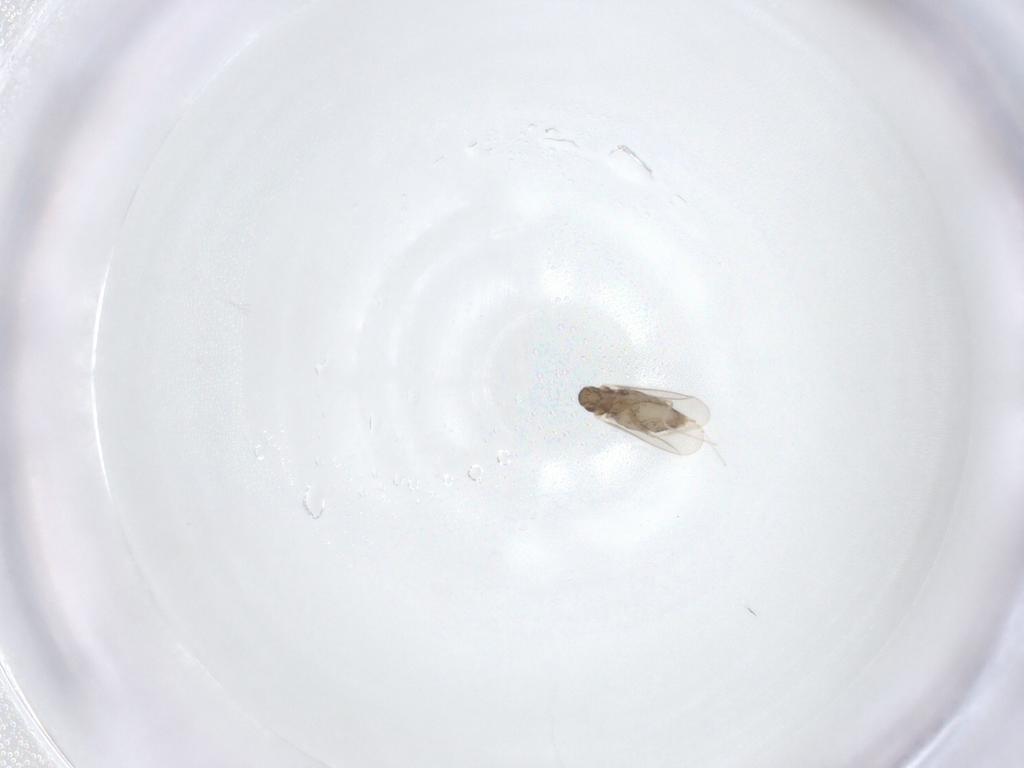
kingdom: Animalia
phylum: Arthropoda
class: Insecta
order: Diptera
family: Cecidomyiidae
